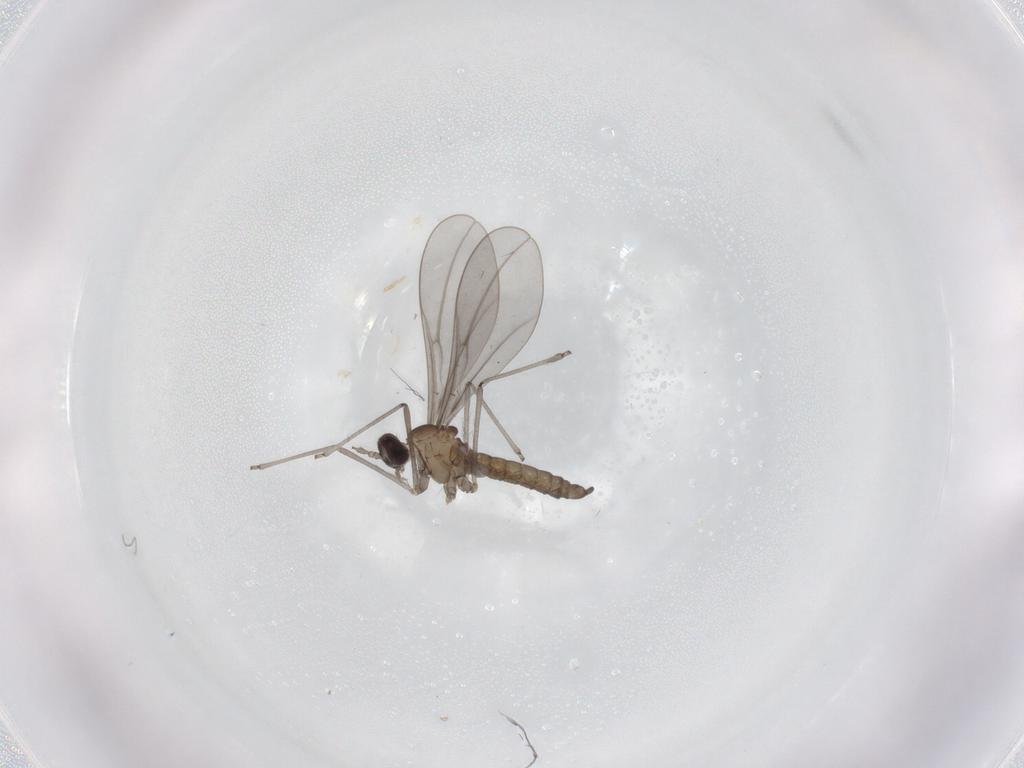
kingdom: Animalia
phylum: Arthropoda
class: Insecta
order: Diptera
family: Cecidomyiidae
